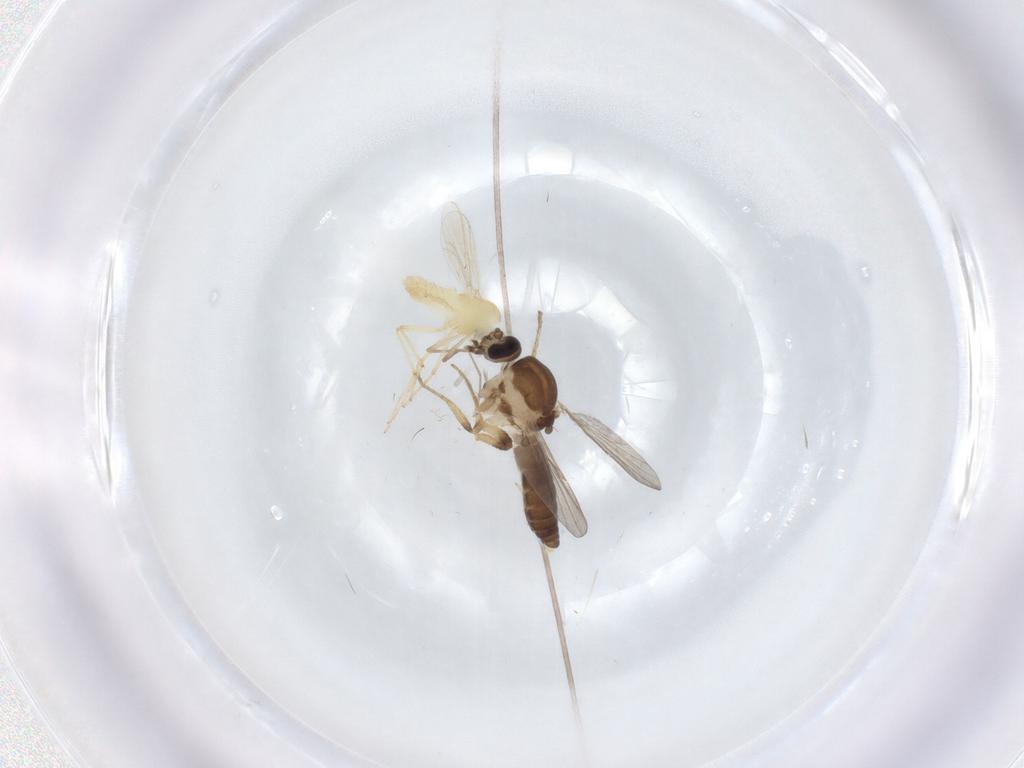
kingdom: Animalia
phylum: Arthropoda
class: Insecta
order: Diptera
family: Ceratopogonidae
